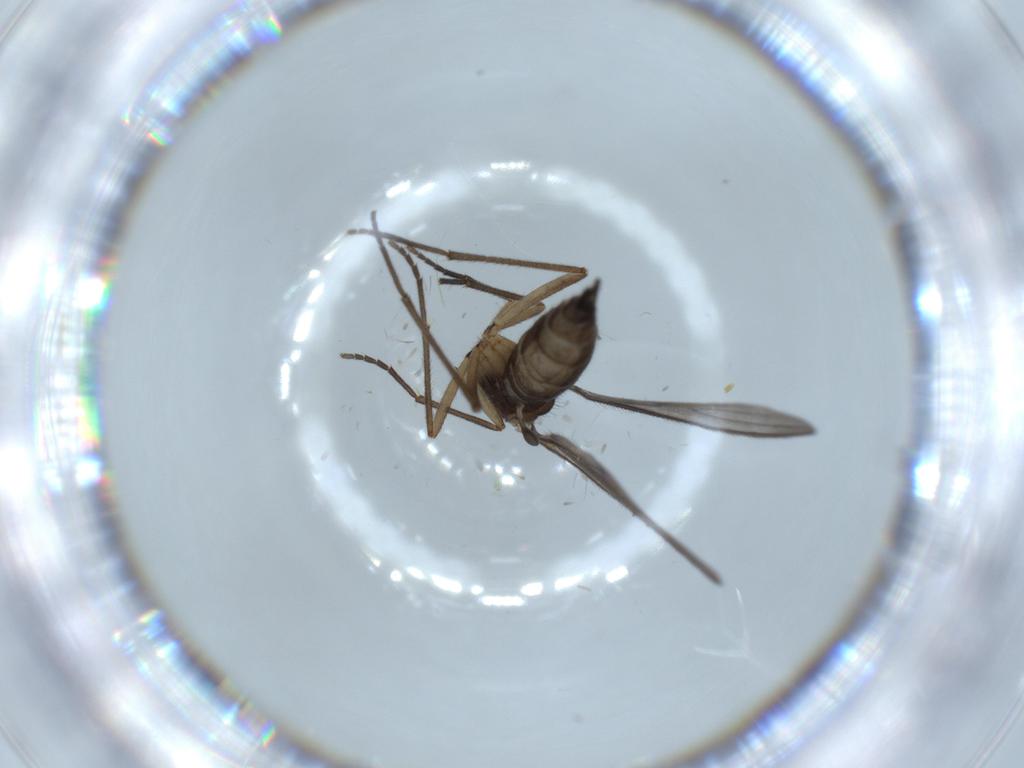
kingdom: Animalia
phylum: Arthropoda
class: Insecta
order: Diptera
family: Sciaridae
